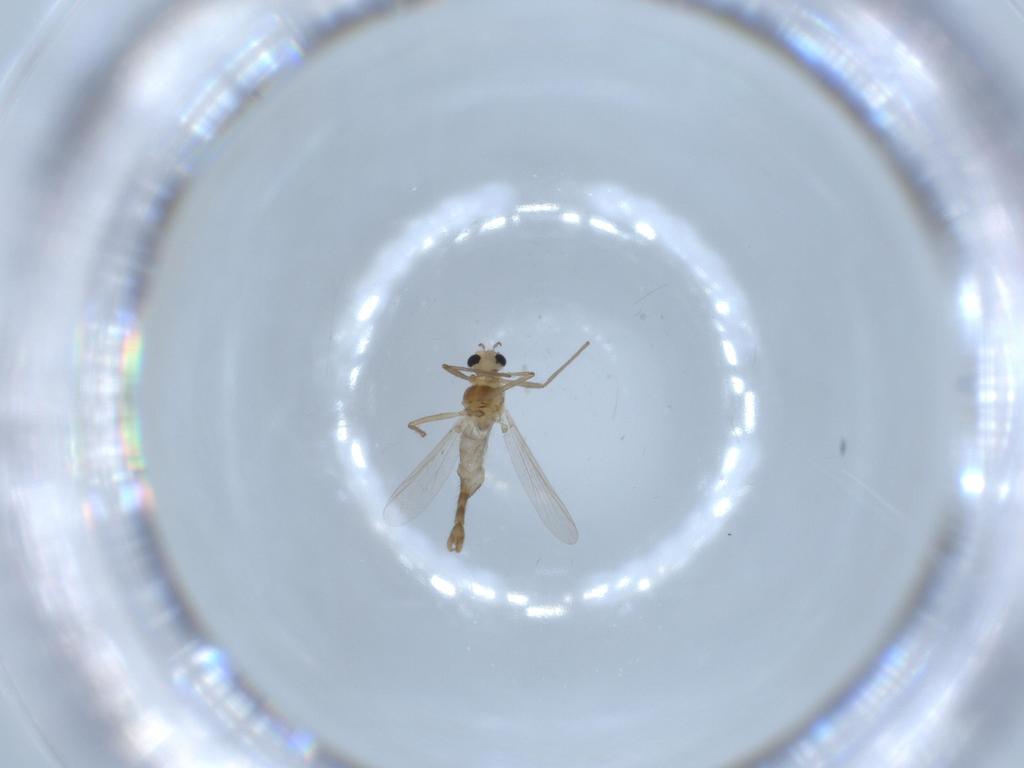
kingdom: Animalia
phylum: Arthropoda
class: Insecta
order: Diptera
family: Chironomidae
